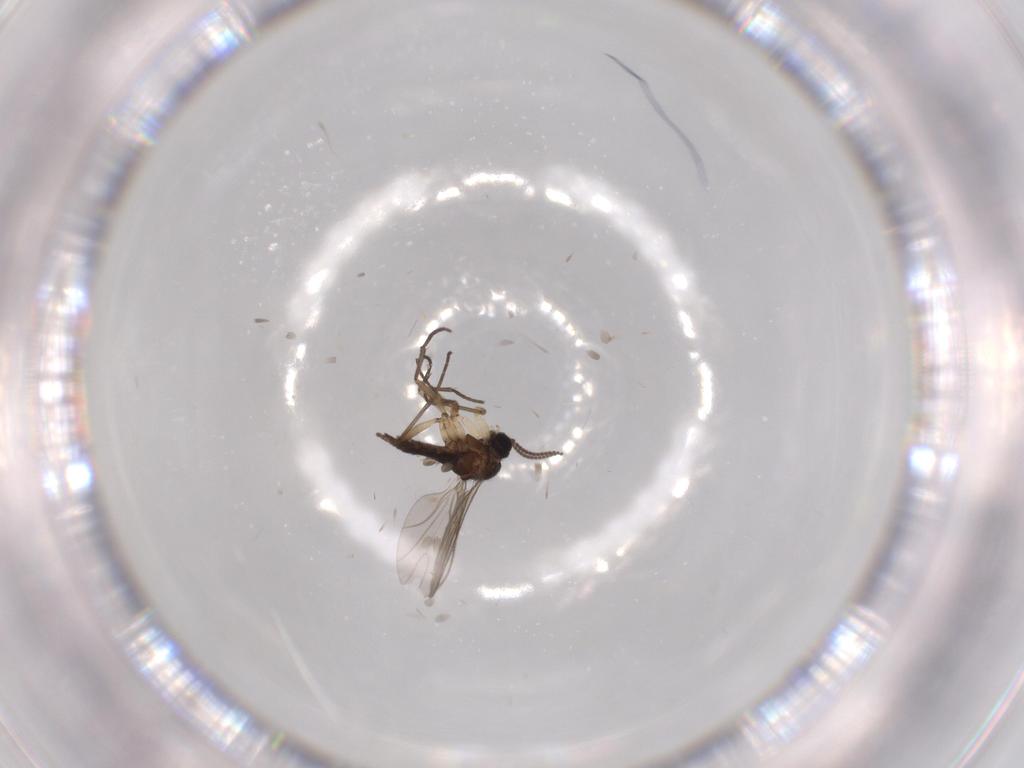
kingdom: Animalia
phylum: Arthropoda
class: Insecta
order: Diptera
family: Sciaridae
